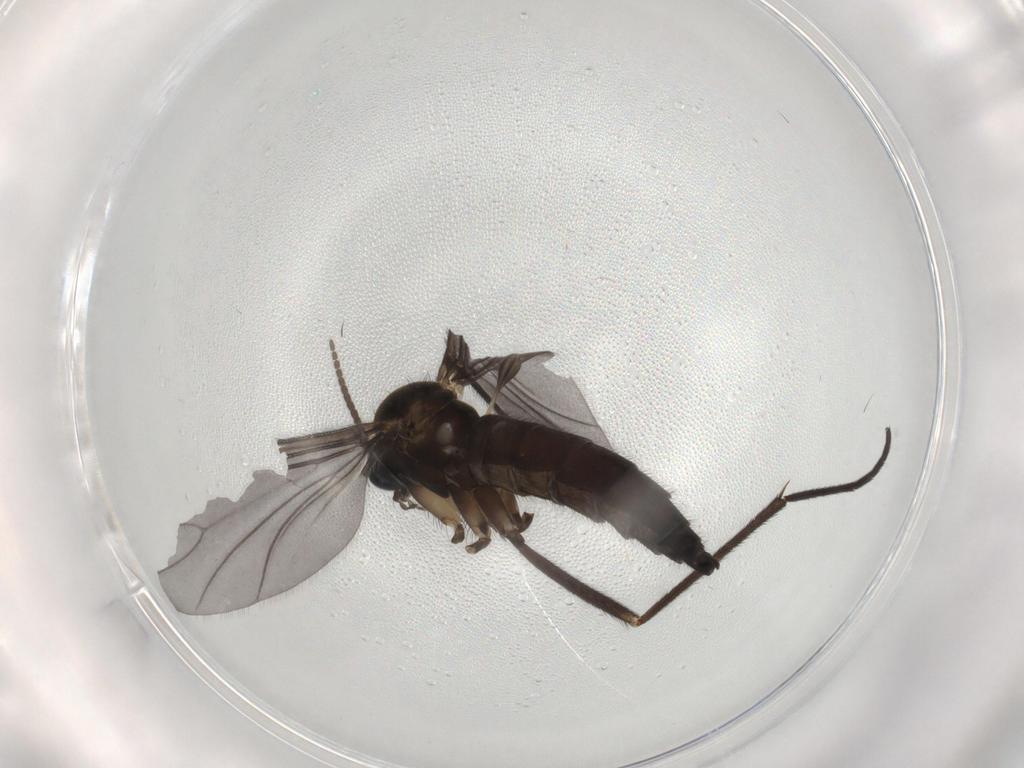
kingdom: Animalia
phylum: Arthropoda
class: Insecta
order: Diptera
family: Sciaridae
